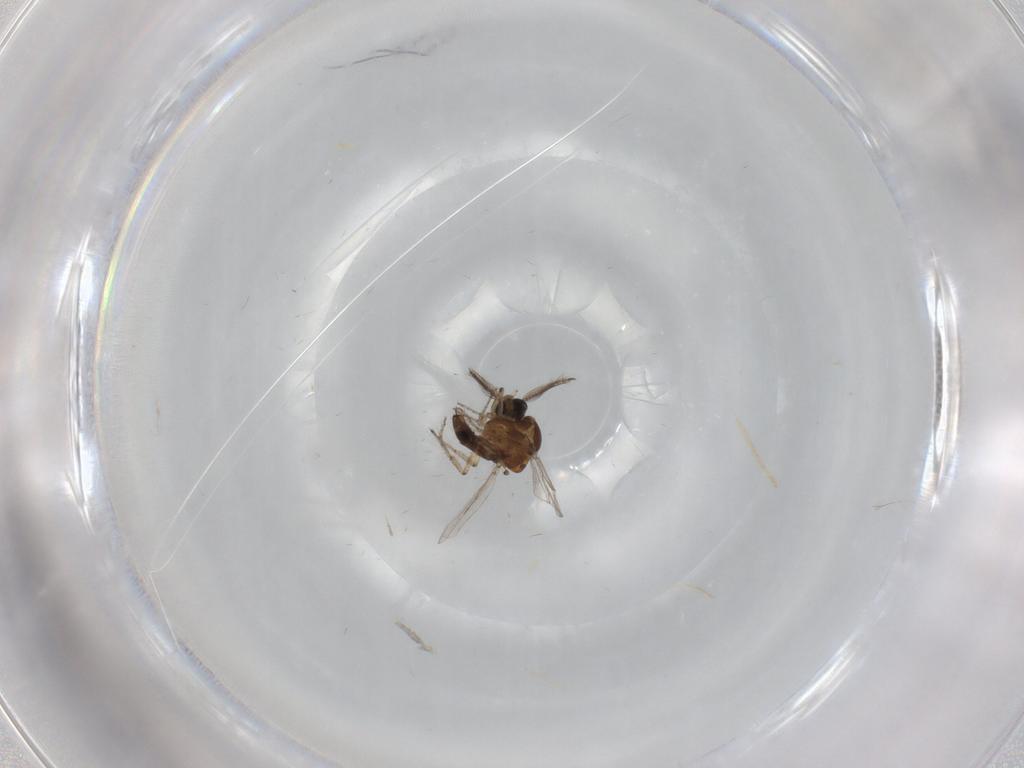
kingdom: Animalia
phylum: Arthropoda
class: Insecta
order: Diptera
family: Ceratopogonidae
